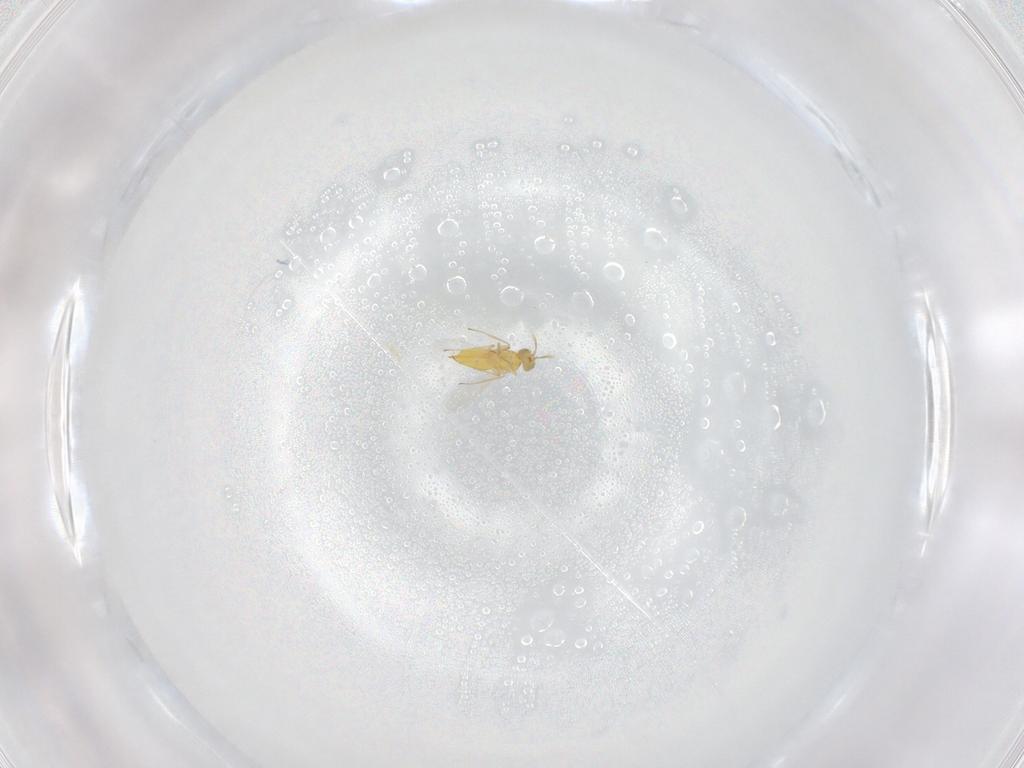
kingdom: Animalia
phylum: Arthropoda
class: Insecta
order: Hymenoptera
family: Aphelinidae
